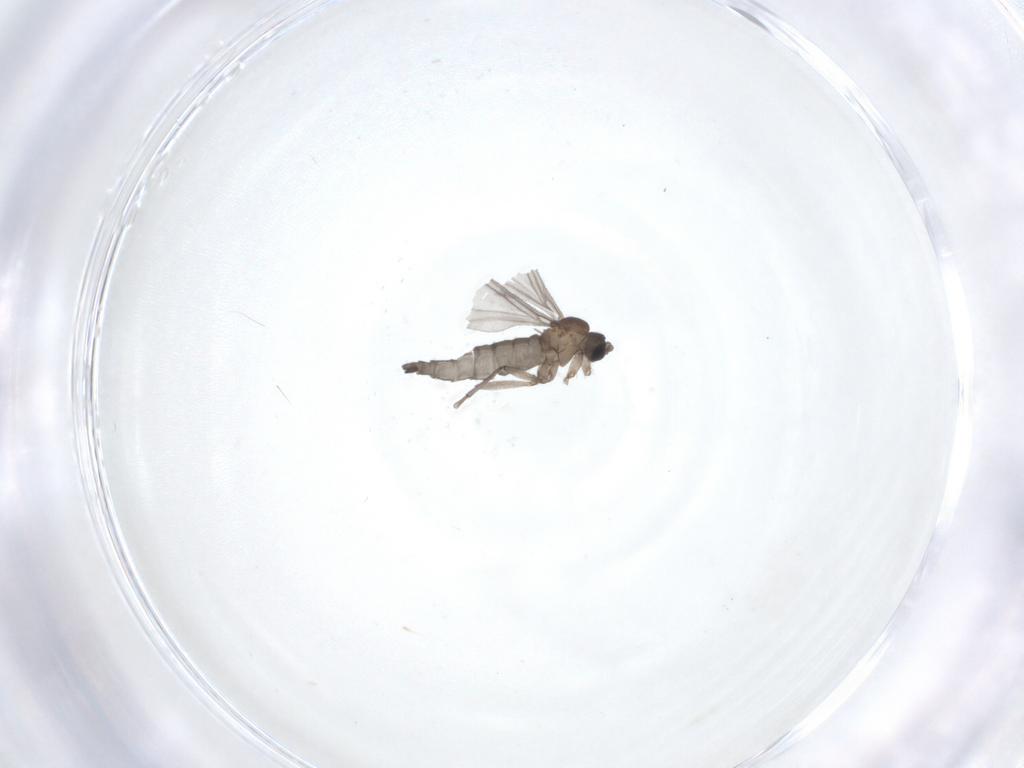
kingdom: Animalia
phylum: Arthropoda
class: Insecta
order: Diptera
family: Sciaridae
